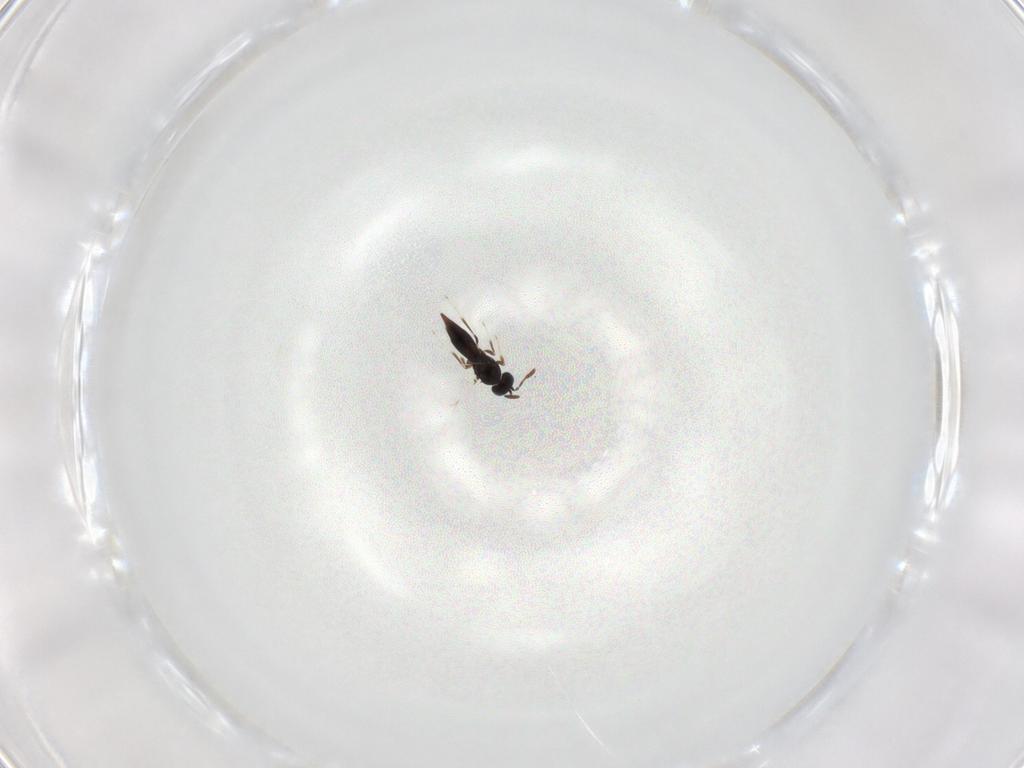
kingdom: Animalia
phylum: Arthropoda
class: Insecta
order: Hymenoptera
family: Scelionidae
